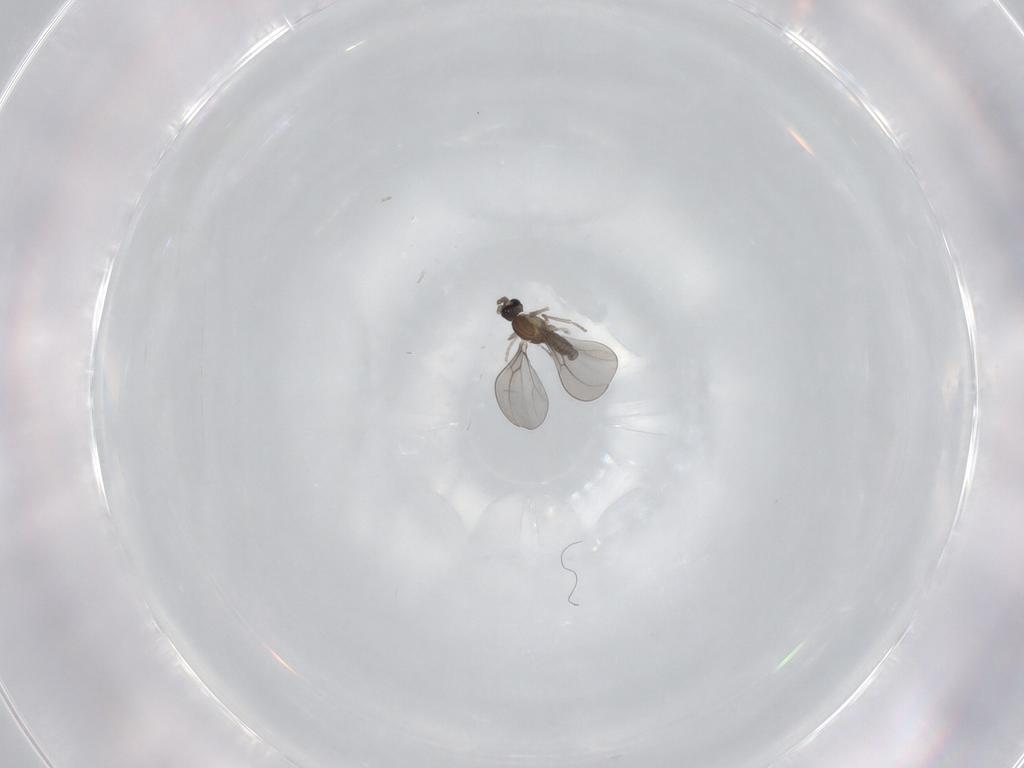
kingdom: Animalia
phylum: Arthropoda
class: Insecta
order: Diptera
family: Cecidomyiidae
